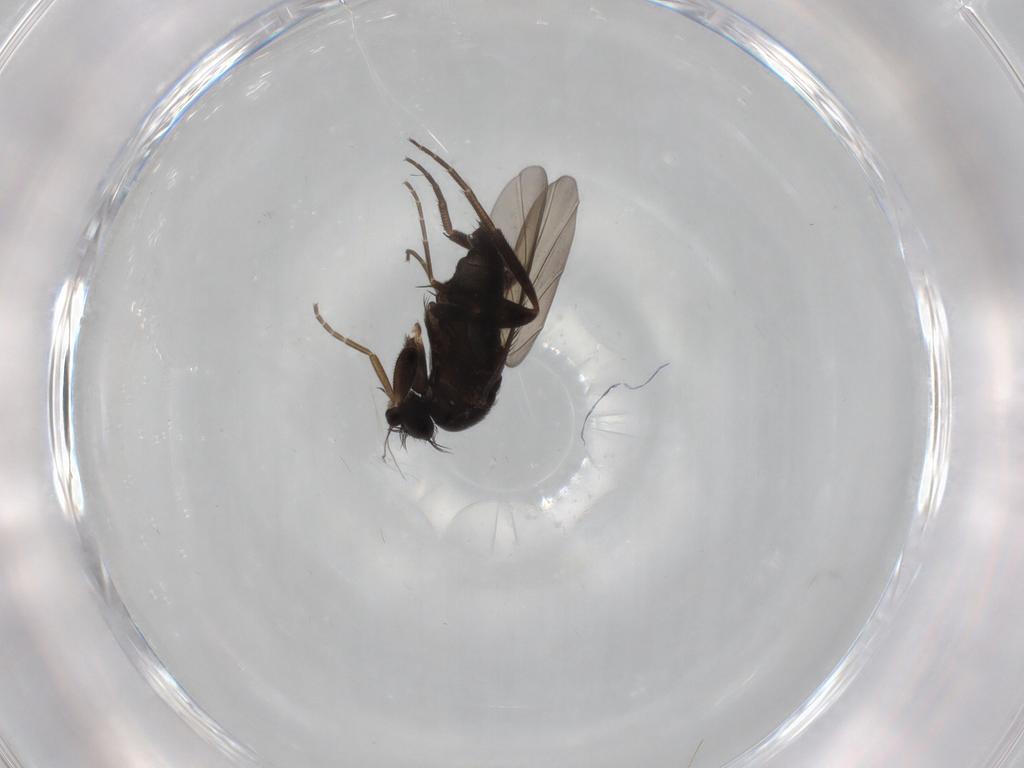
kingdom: Animalia
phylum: Arthropoda
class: Insecta
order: Diptera
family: Phoridae
